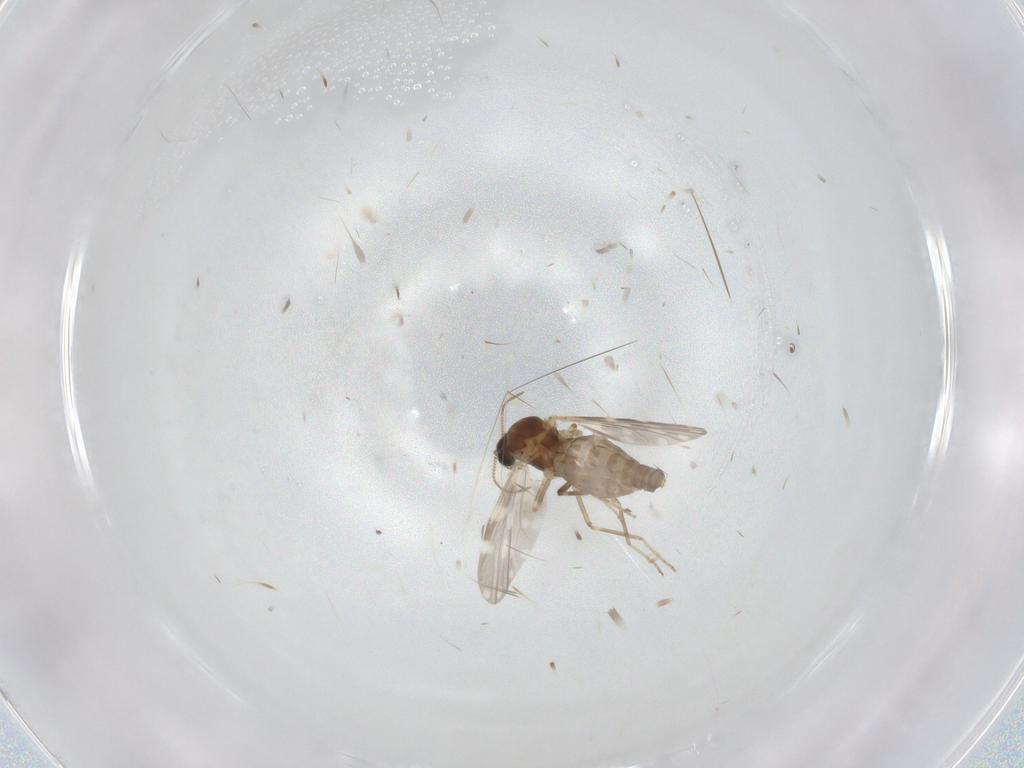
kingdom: Animalia
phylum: Arthropoda
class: Insecta
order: Diptera
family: Ceratopogonidae
